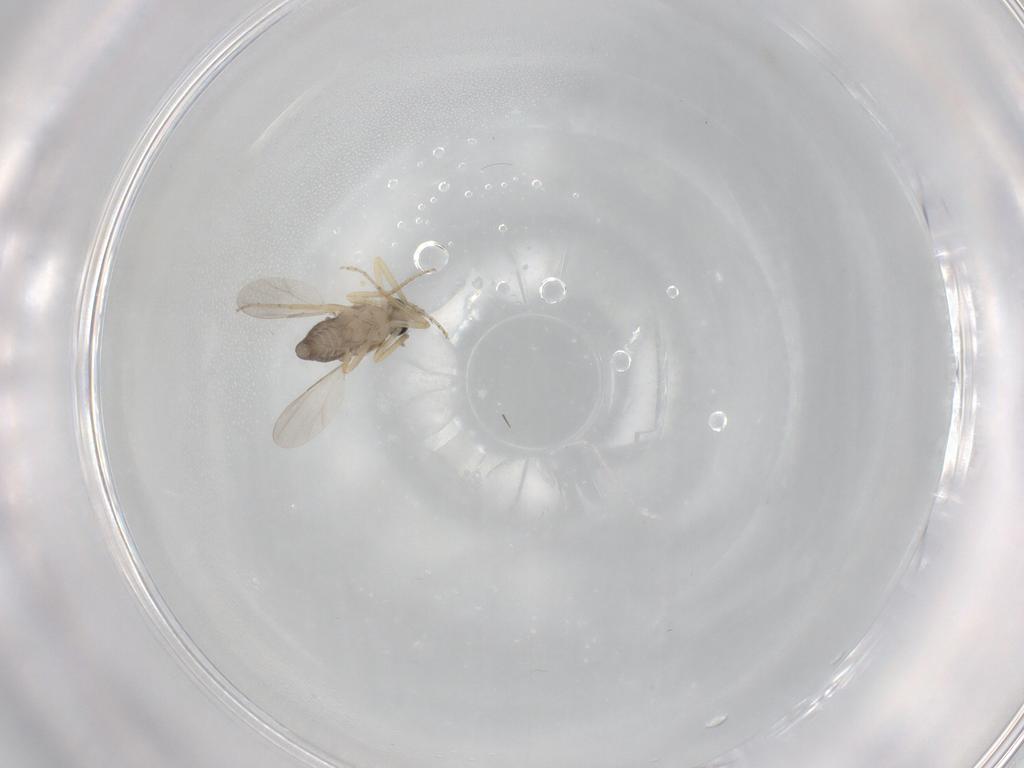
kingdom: Animalia
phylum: Arthropoda
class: Insecta
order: Diptera
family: Ceratopogonidae
